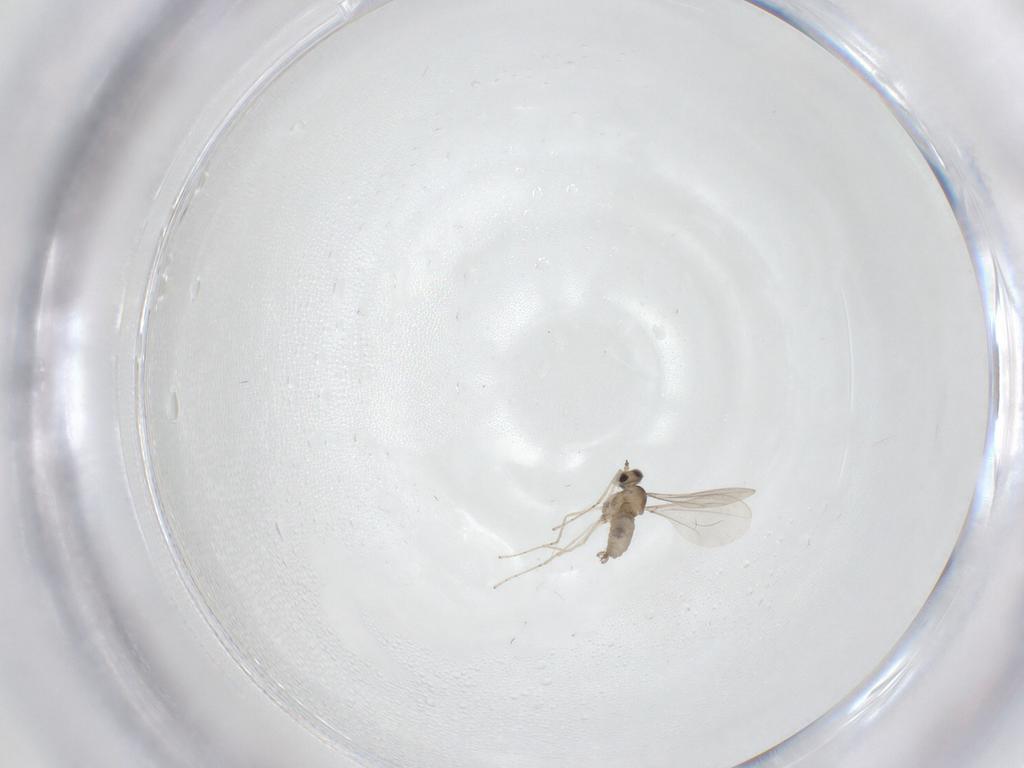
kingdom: Animalia
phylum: Arthropoda
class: Insecta
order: Diptera
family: Cecidomyiidae
